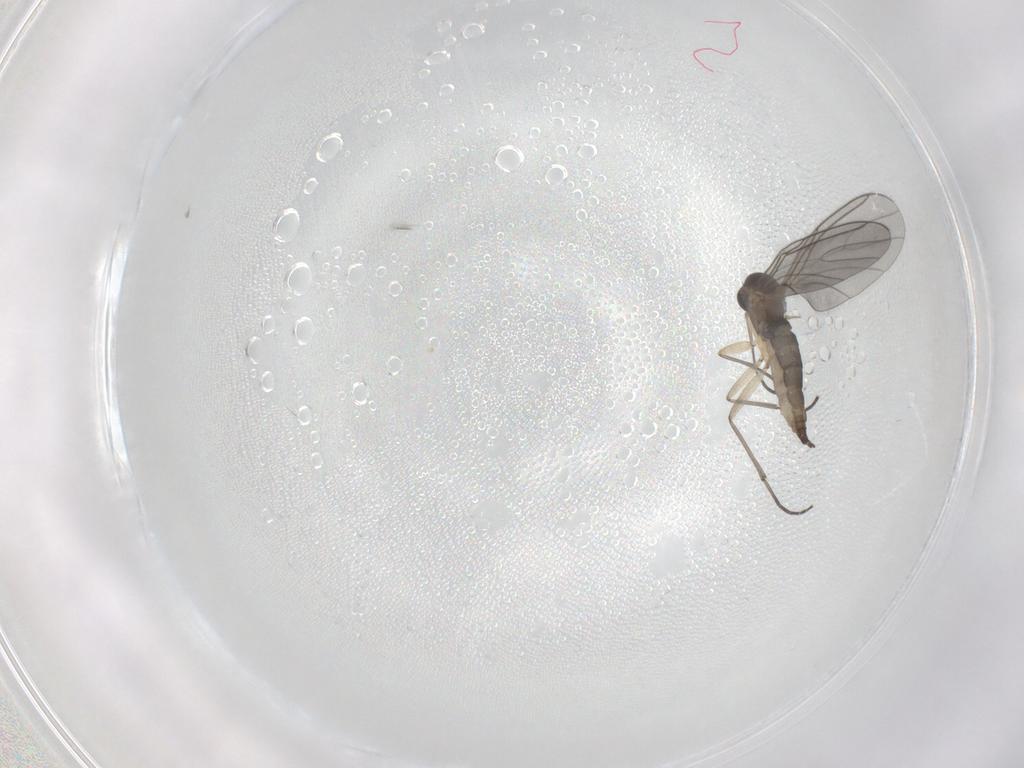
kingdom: Animalia
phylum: Arthropoda
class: Insecta
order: Diptera
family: Sciaridae
